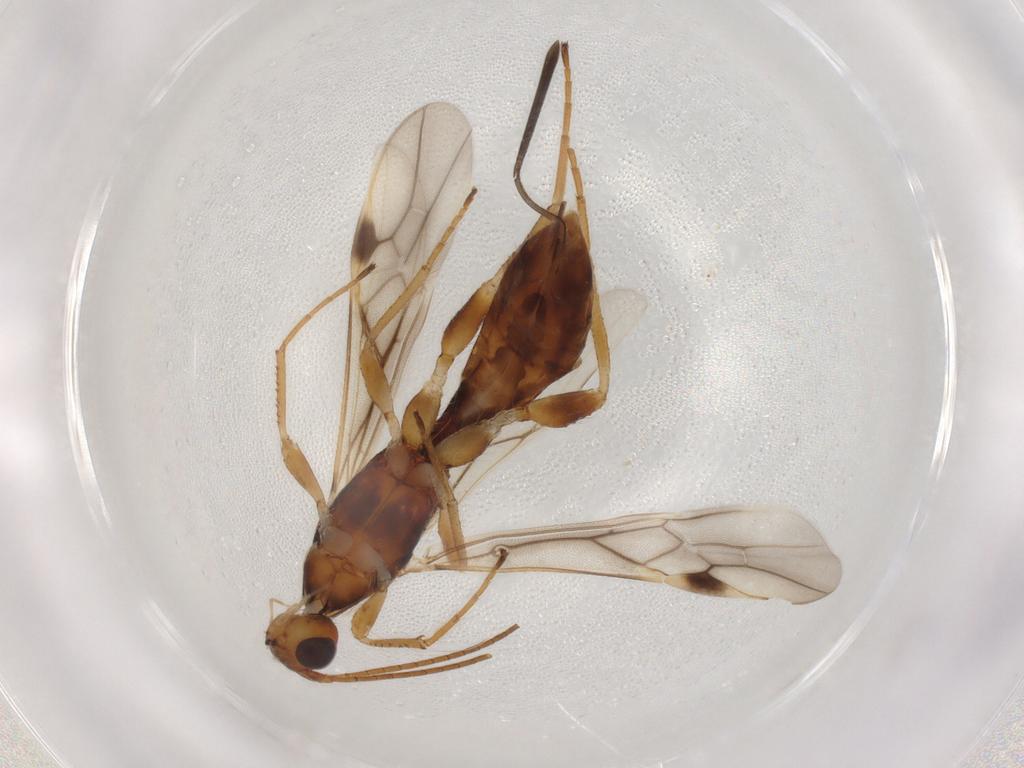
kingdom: Animalia
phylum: Arthropoda
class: Insecta
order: Hymenoptera
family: Braconidae
